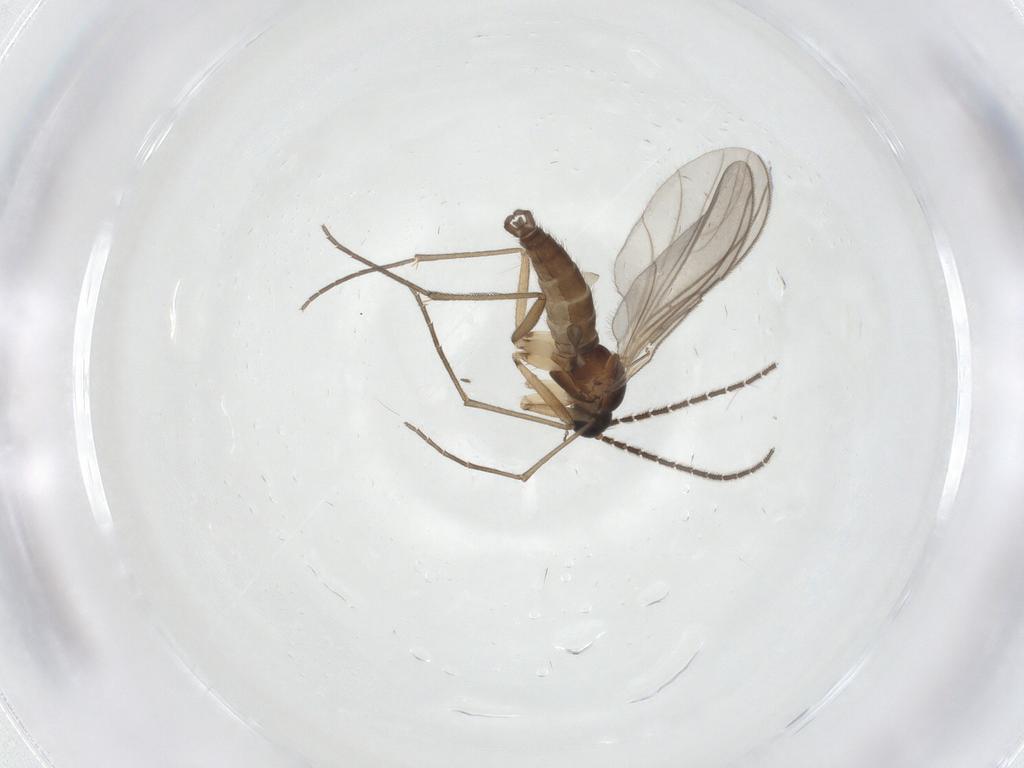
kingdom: Animalia
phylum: Arthropoda
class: Insecta
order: Diptera
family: Sciaridae
